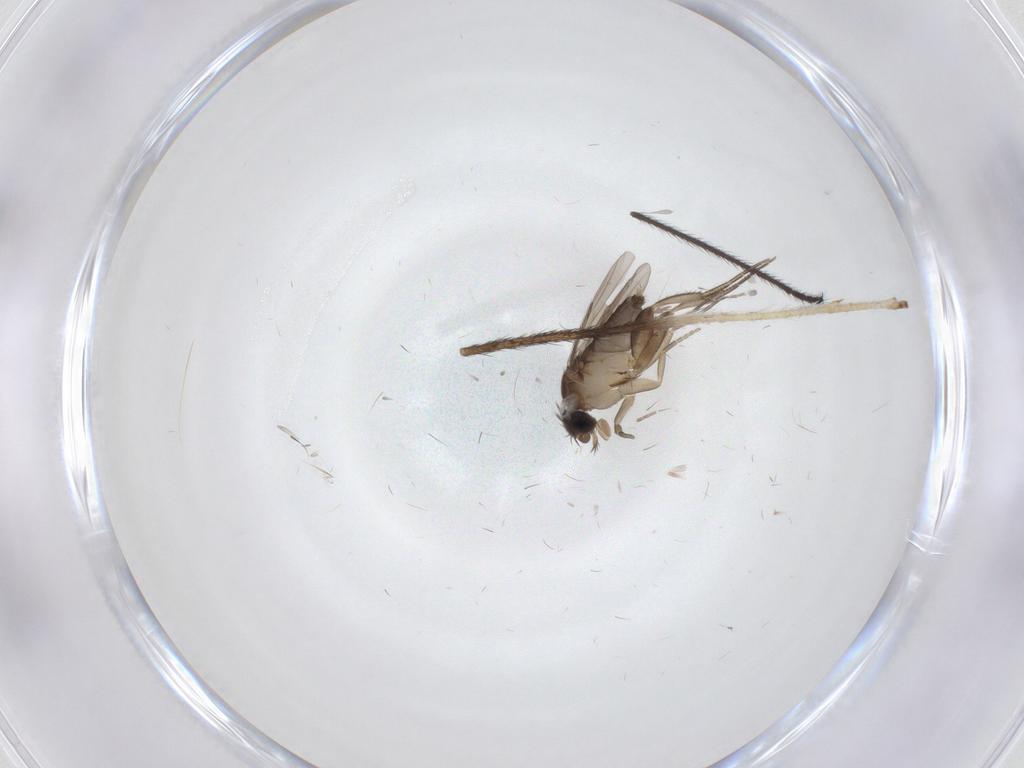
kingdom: Animalia
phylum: Arthropoda
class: Insecta
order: Diptera
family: Phoridae
